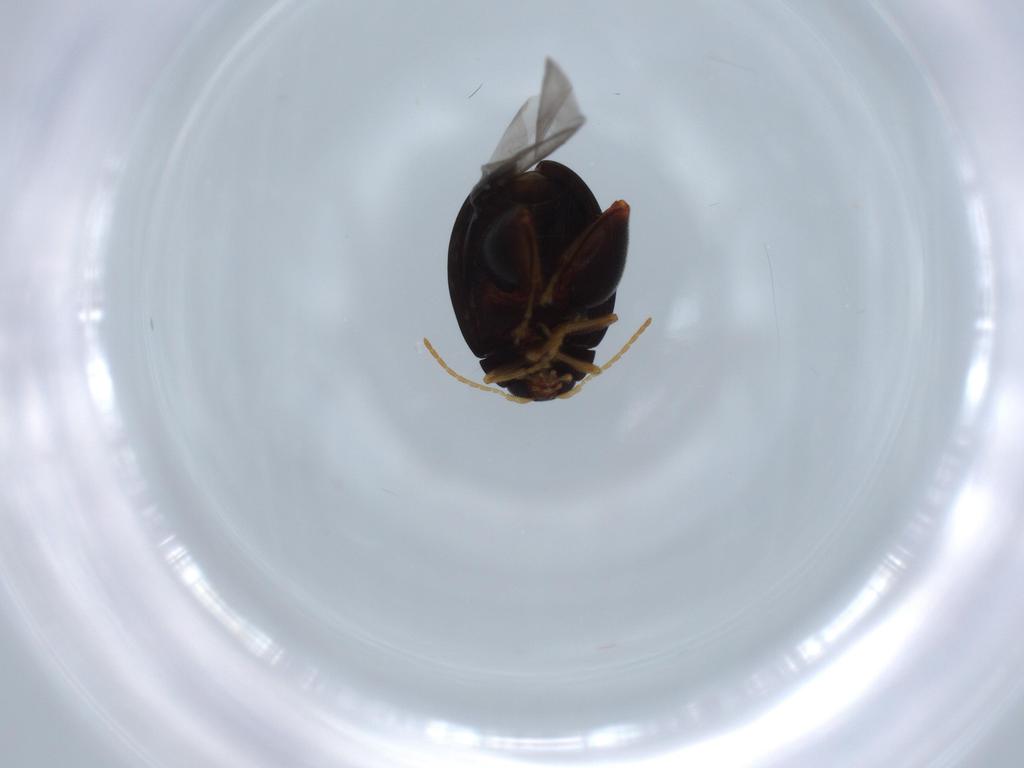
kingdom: Animalia
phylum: Arthropoda
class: Insecta
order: Coleoptera
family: Chrysomelidae
